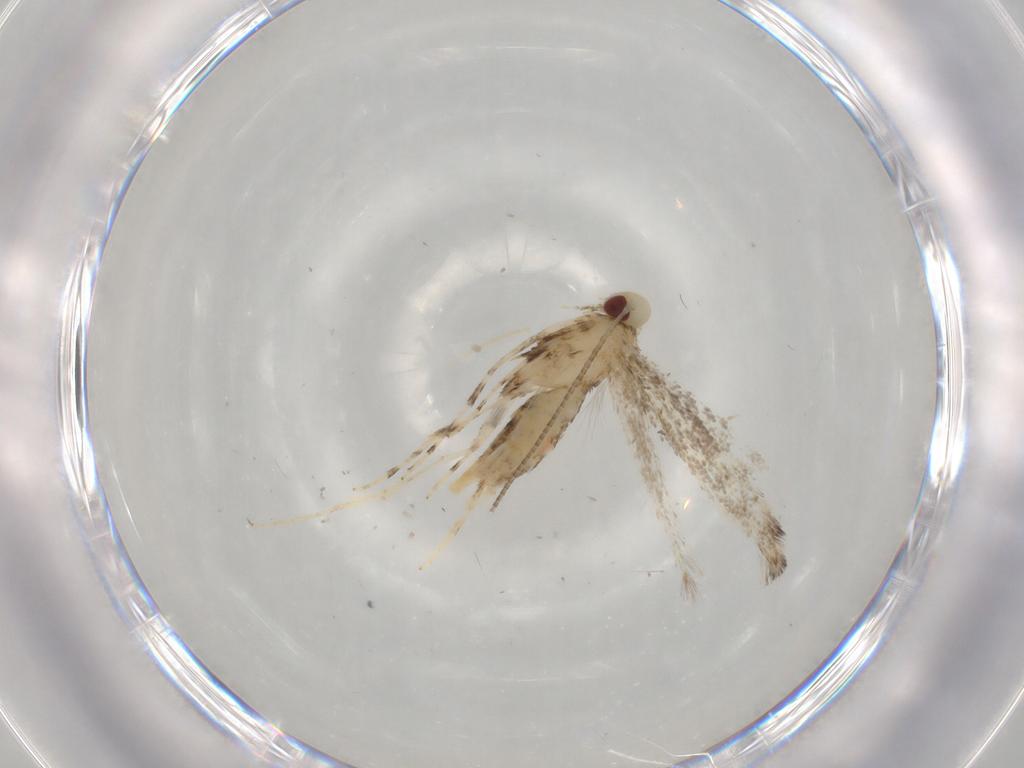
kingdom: Animalia
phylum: Arthropoda
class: Insecta
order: Lepidoptera
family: Gracillariidae
